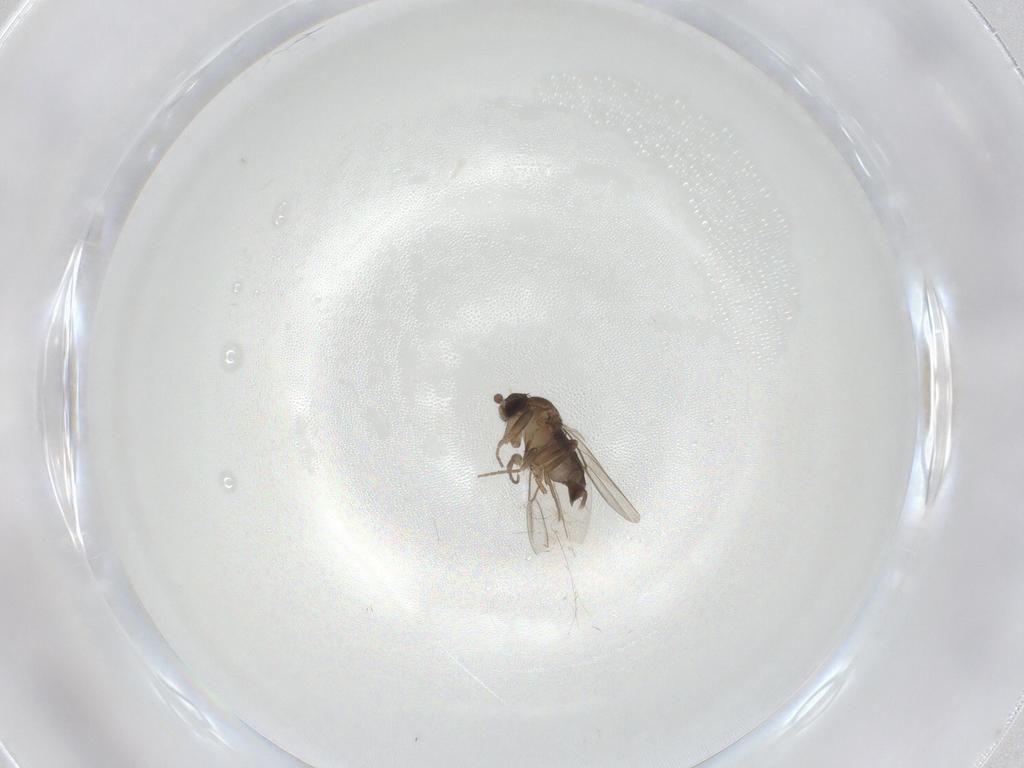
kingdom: Animalia
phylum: Arthropoda
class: Insecta
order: Diptera
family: Phoridae
